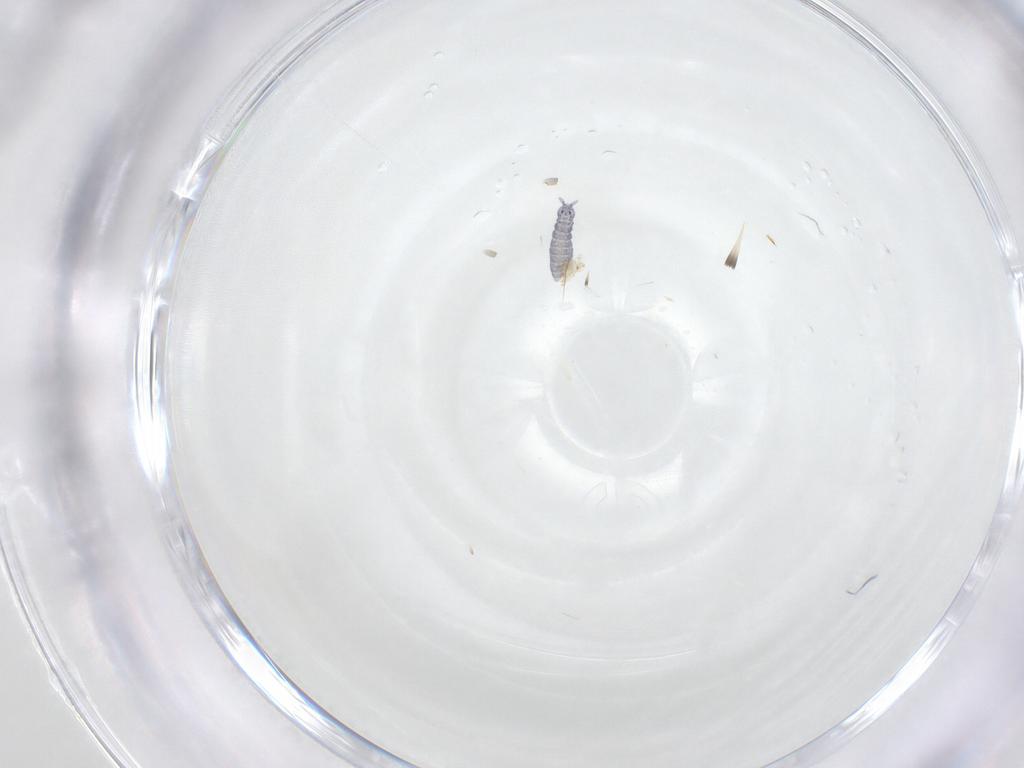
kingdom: Animalia
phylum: Arthropoda
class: Collembola
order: Poduromorpha
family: Hypogastruridae
